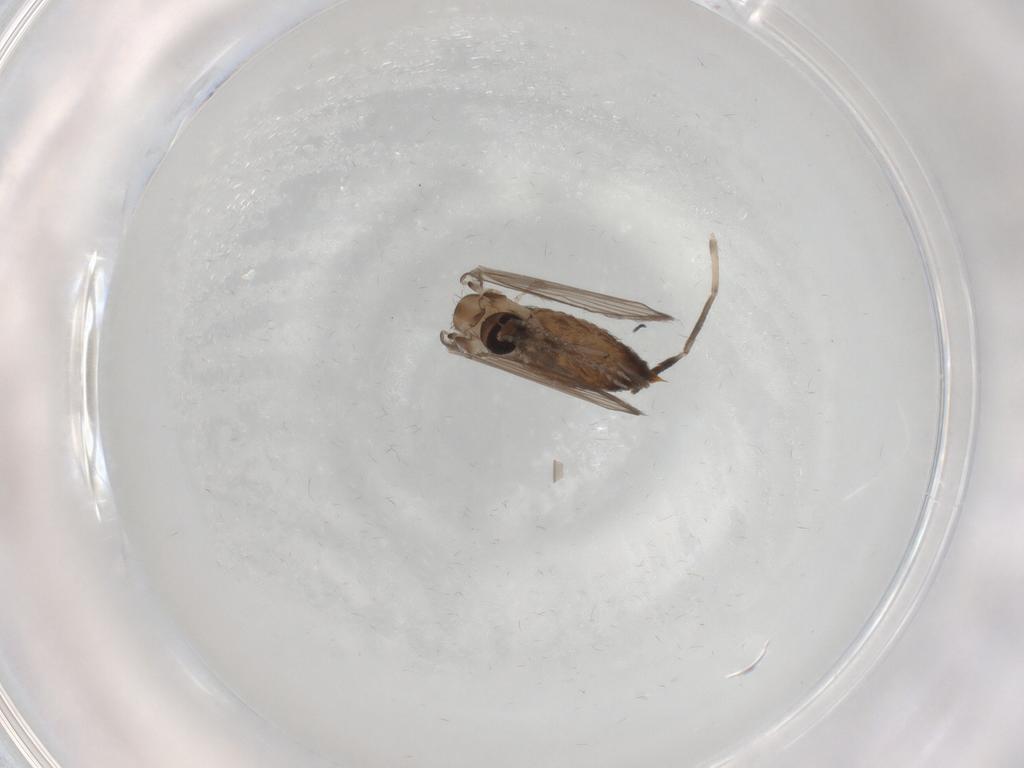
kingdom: Animalia
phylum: Arthropoda
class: Insecta
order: Diptera
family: Psychodidae
